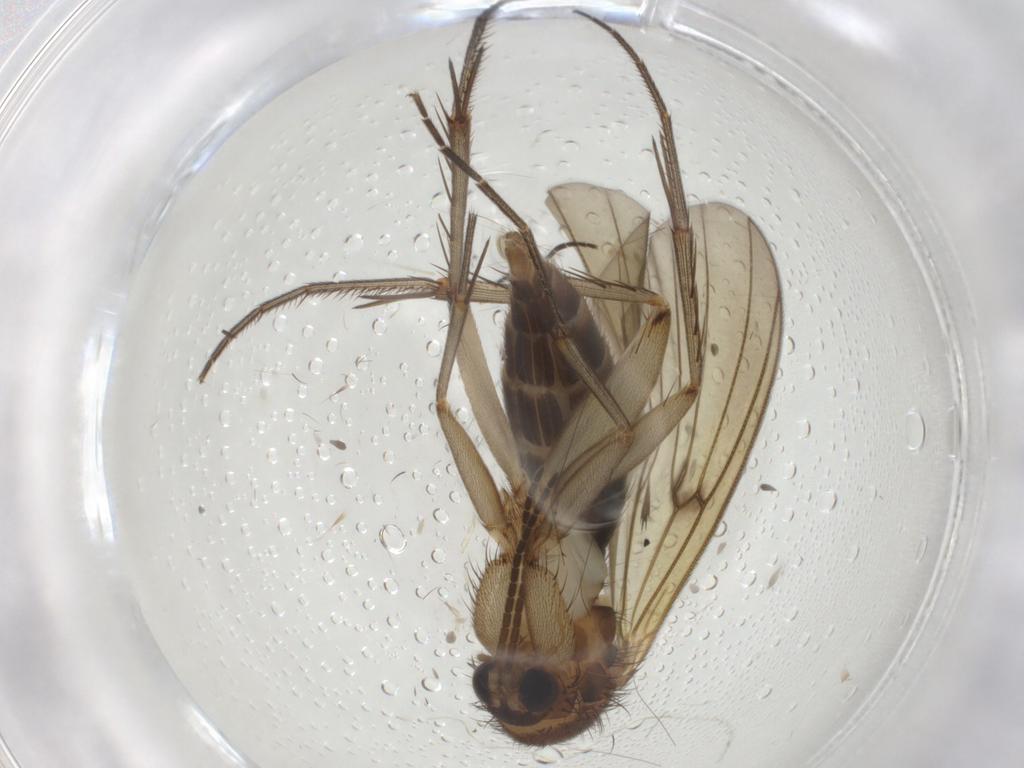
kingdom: Animalia
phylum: Arthropoda
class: Insecta
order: Diptera
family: Mycetophilidae
